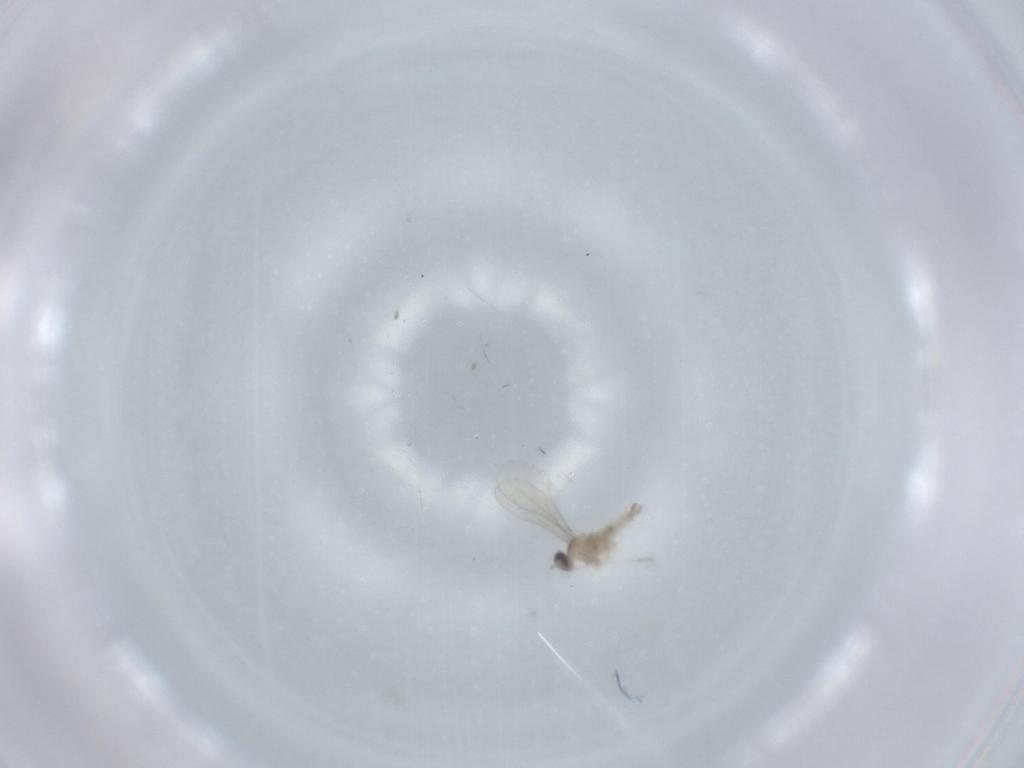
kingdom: Animalia
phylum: Arthropoda
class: Insecta
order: Diptera
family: Cecidomyiidae
